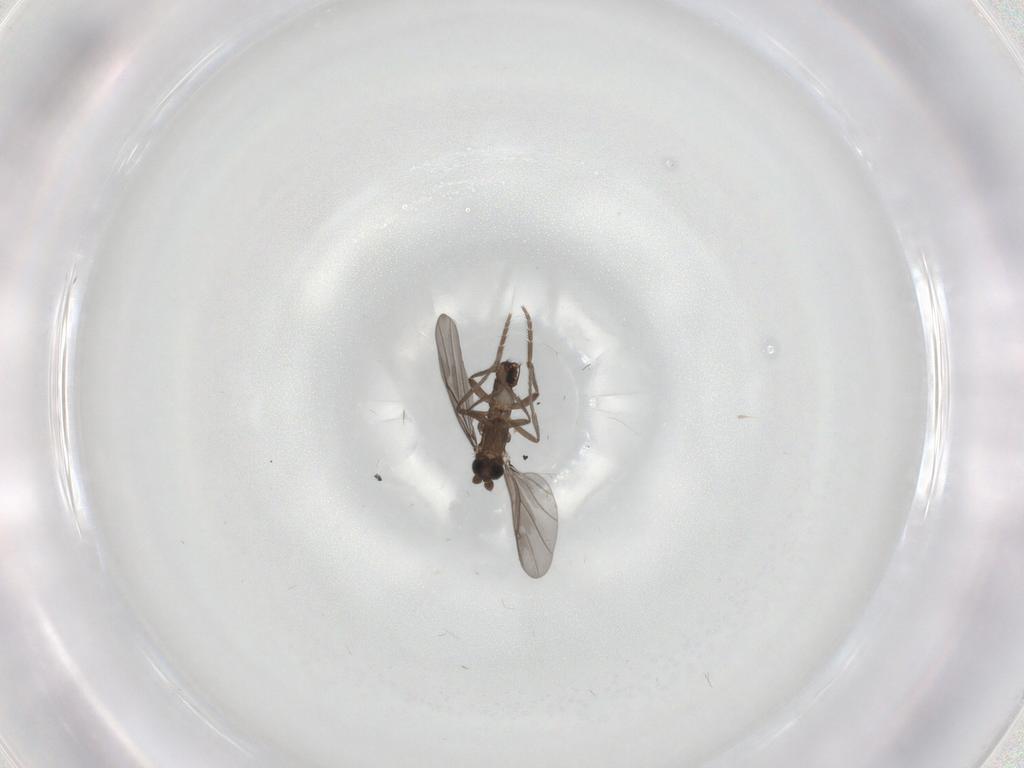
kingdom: Animalia
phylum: Arthropoda
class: Insecta
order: Diptera
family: Phoridae
